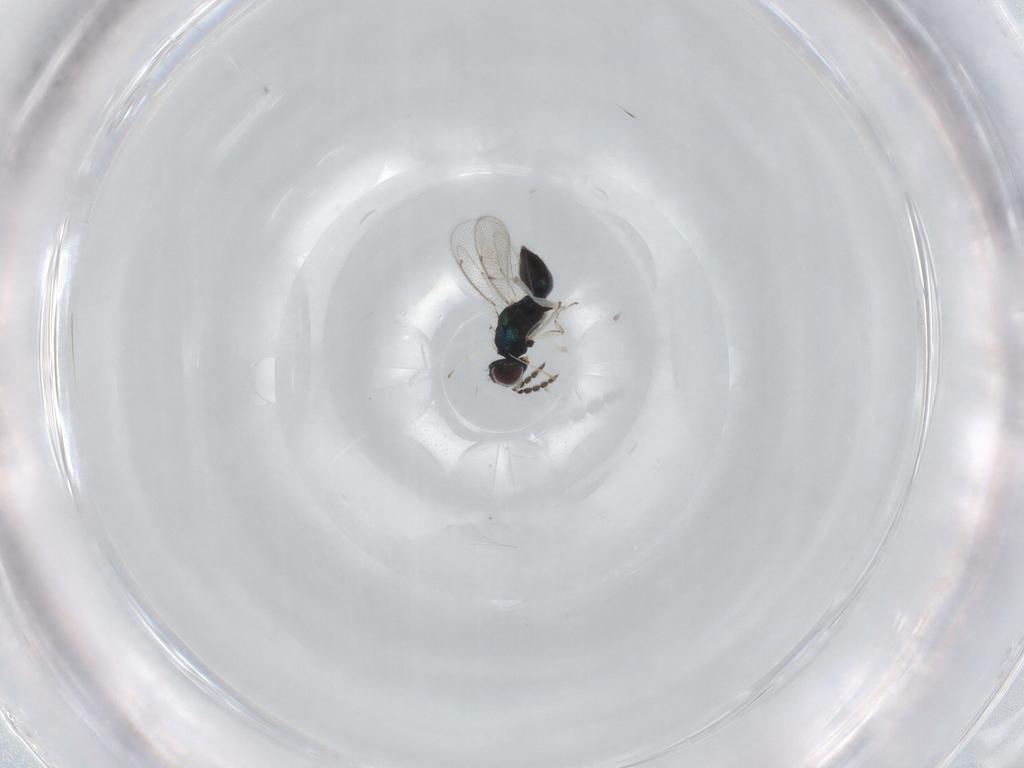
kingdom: Animalia
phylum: Arthropoda
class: Insecta
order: Hymenoptera
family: Eulophidae
